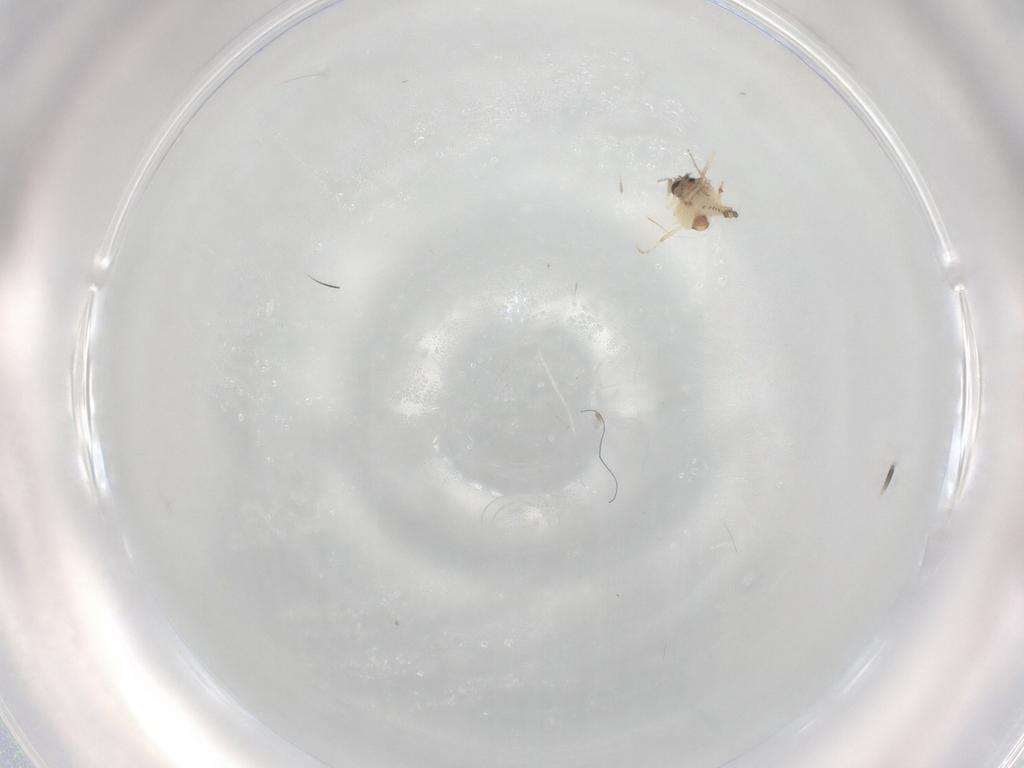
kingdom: Animalia
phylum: Arthropoda
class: Insecta
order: Diptera
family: Ceratopogonidae
